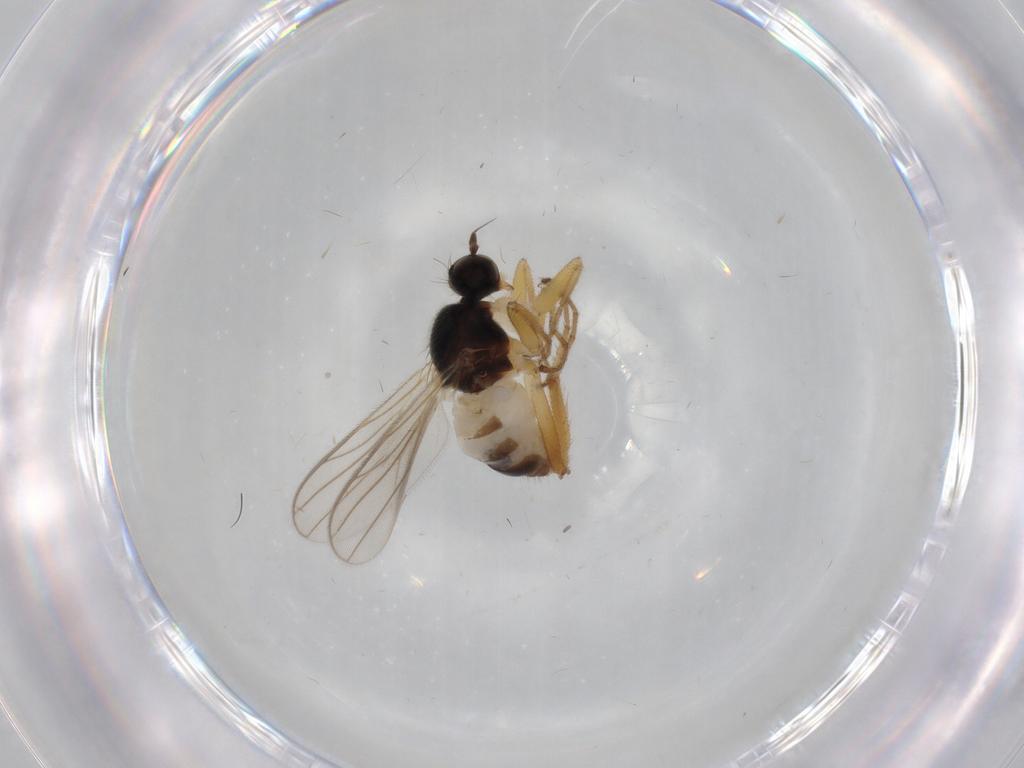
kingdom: Animalia
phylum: Arthropoda
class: Insecta
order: Diptera
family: Hybotidae
